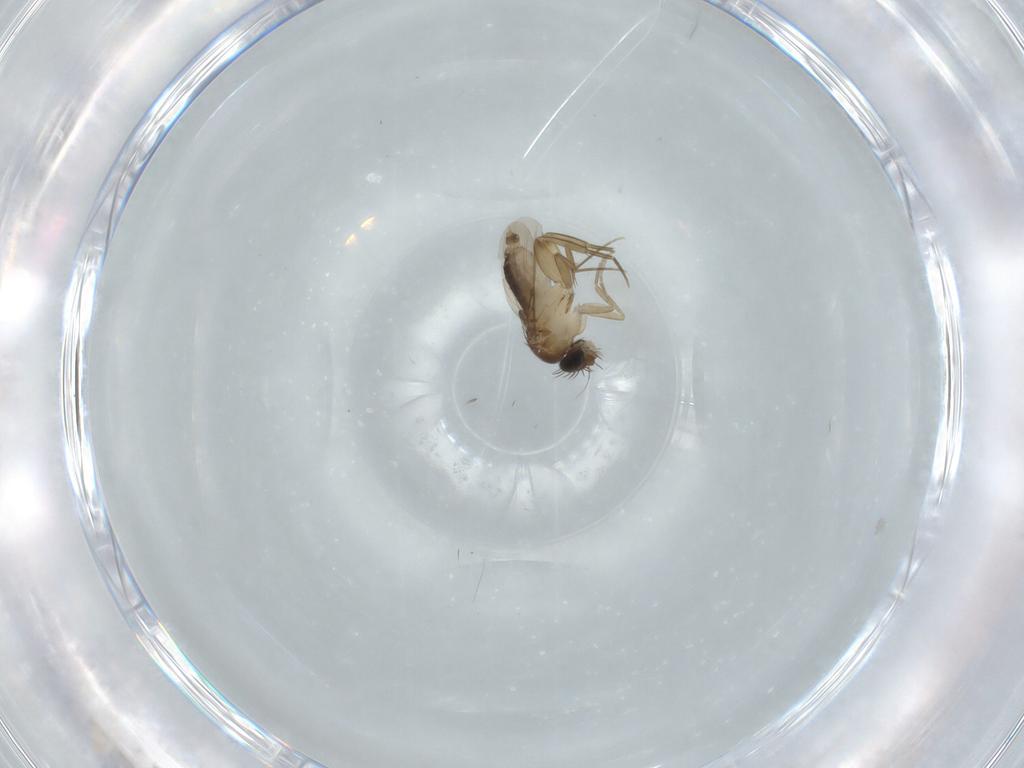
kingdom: Animalia
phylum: Arthropoda
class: Insecta
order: Diptera
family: Phoridae
